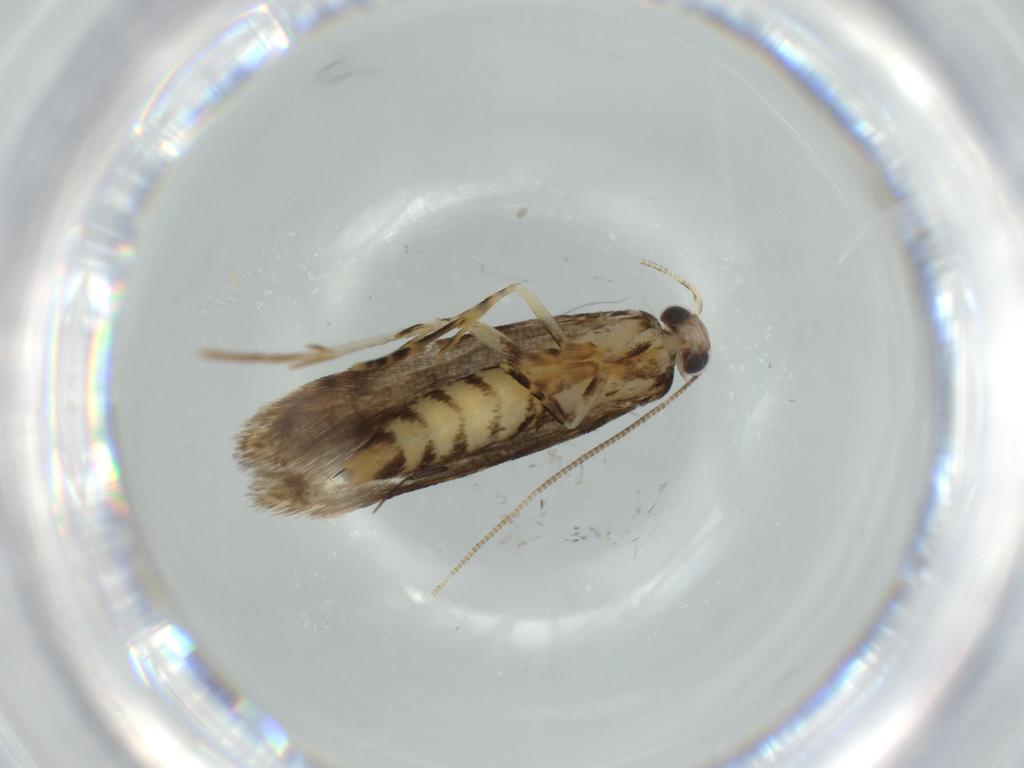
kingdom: Animalia
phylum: Arthropoda
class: Insecta
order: Lepidoptera
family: Tineidae
